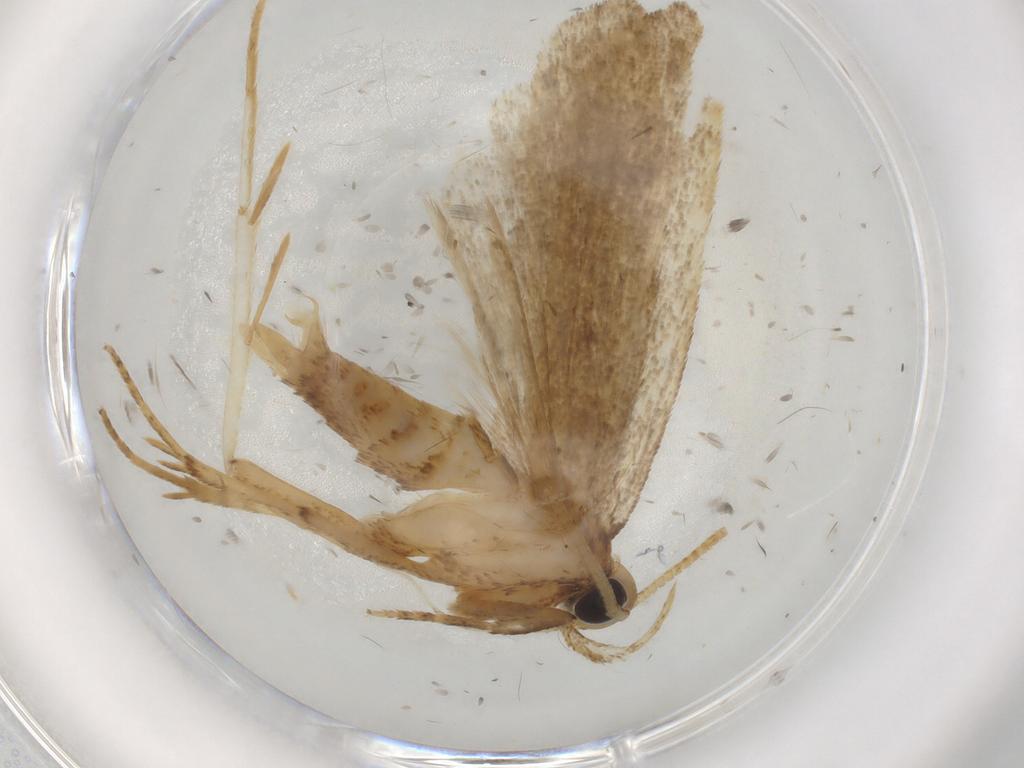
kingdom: Animalia
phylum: Arthropoda
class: Insecta
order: Lepidoptera
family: Autostichidae
